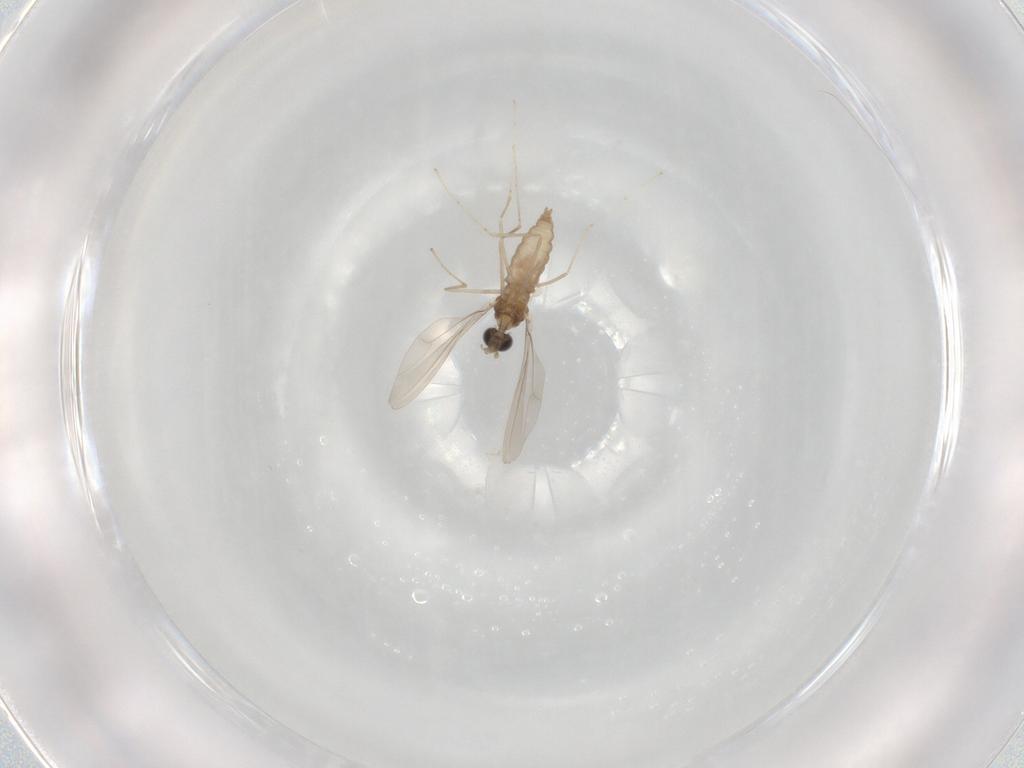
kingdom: Animalia
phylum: Arthropoda
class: Insecta
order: Diptera
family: Cecidomyiidae
